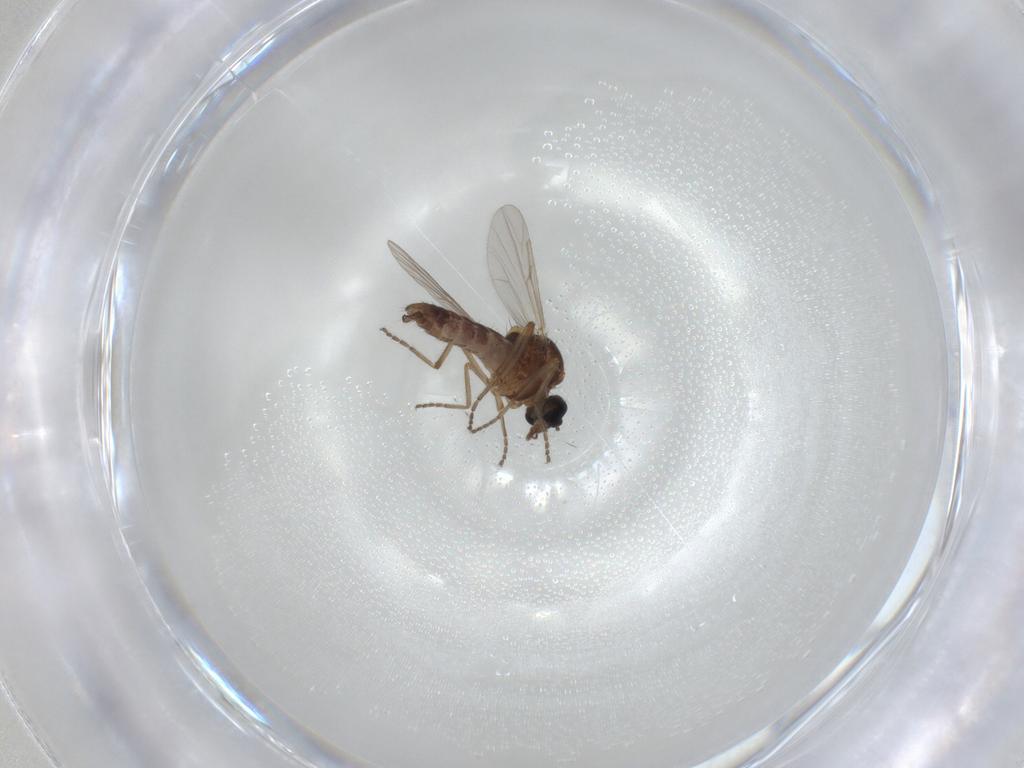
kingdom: Animalia
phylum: Arthropoda
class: Insecta
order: Diptera
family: Ceratopogonidae
